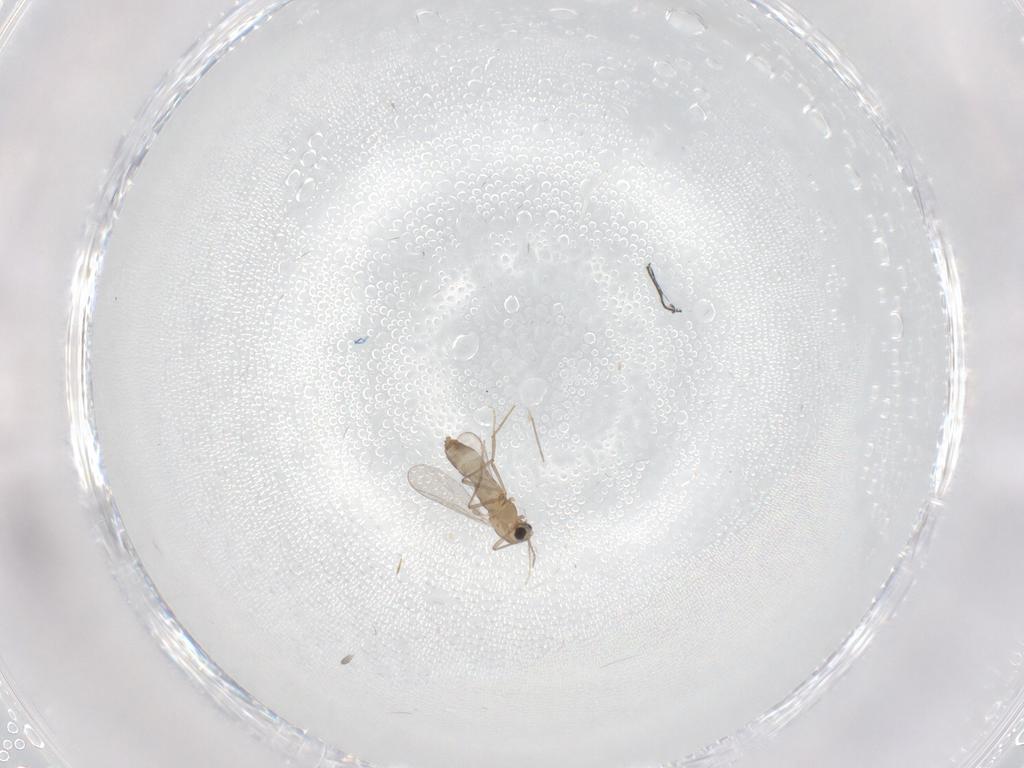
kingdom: Animalia
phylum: Arthropoda
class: Insecta
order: Diptera
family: Chironomidae
